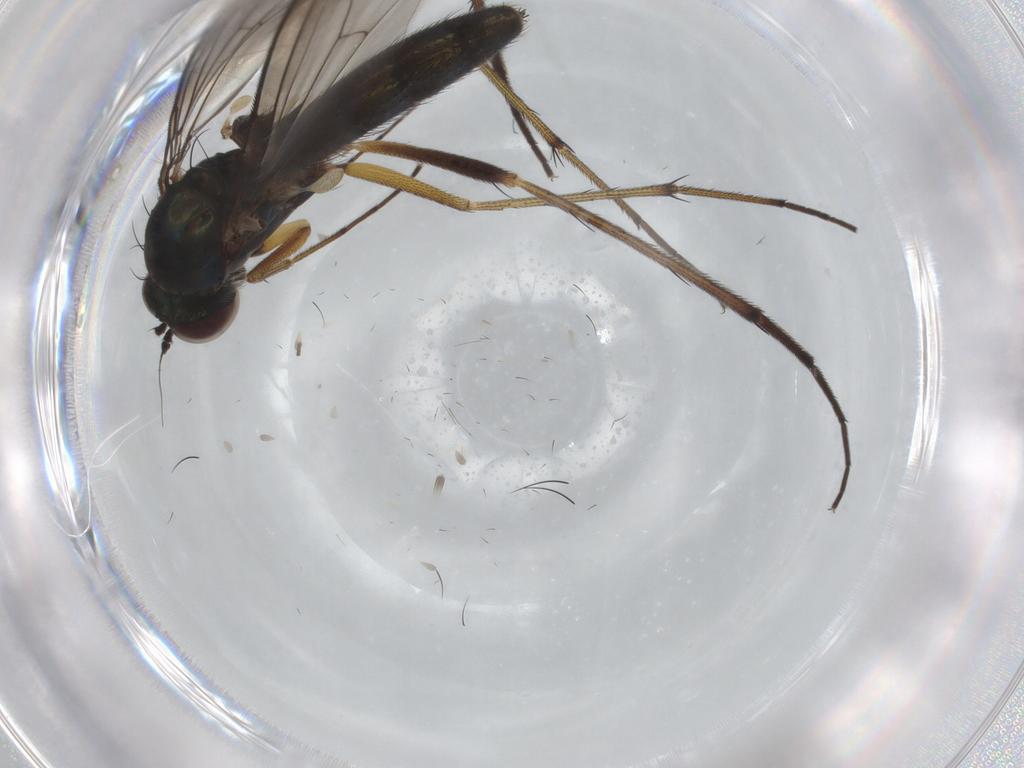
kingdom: Animalia
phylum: Arthropoda
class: Insecta
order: Diptera
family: Dolichopodidae
